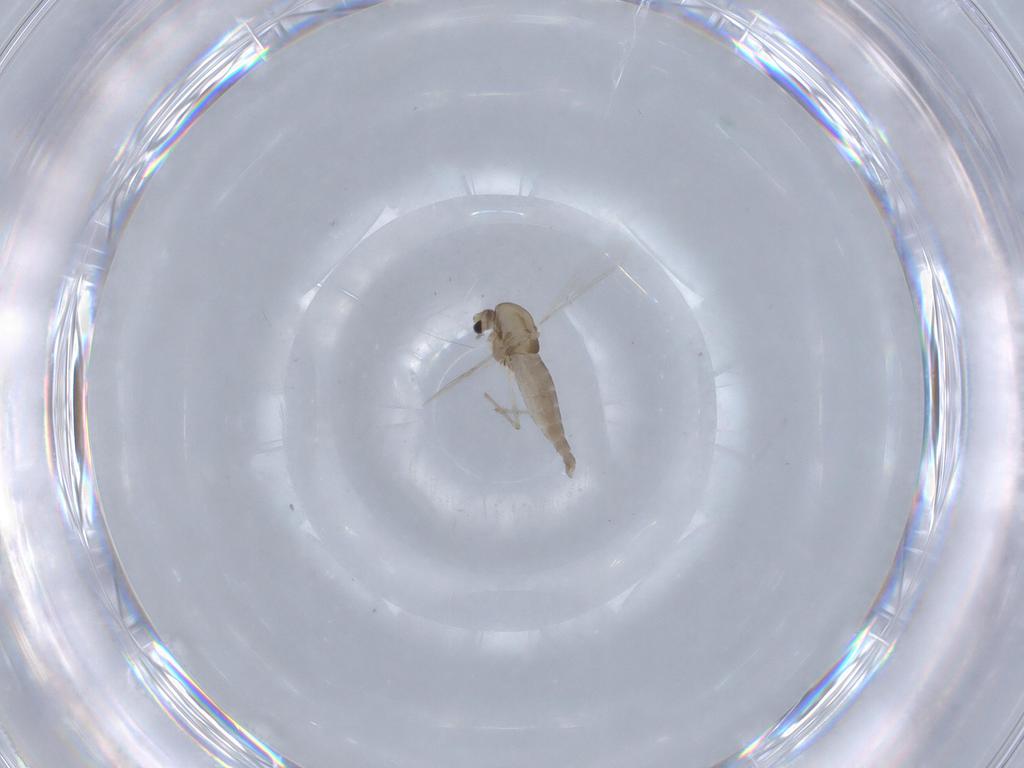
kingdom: Animalia
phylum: Arthropoda
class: Insecta
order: Diptera
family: Chironomidae
